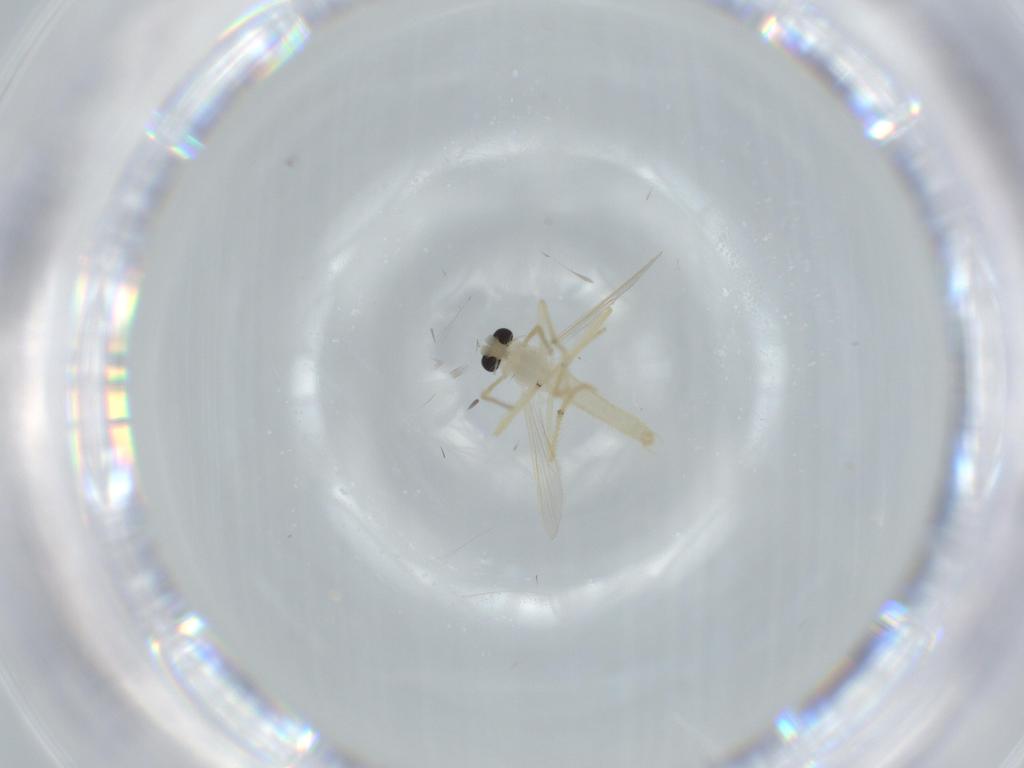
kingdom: Animalia
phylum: Arthropoda
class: Insecta
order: Diptera
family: Chironomidae
